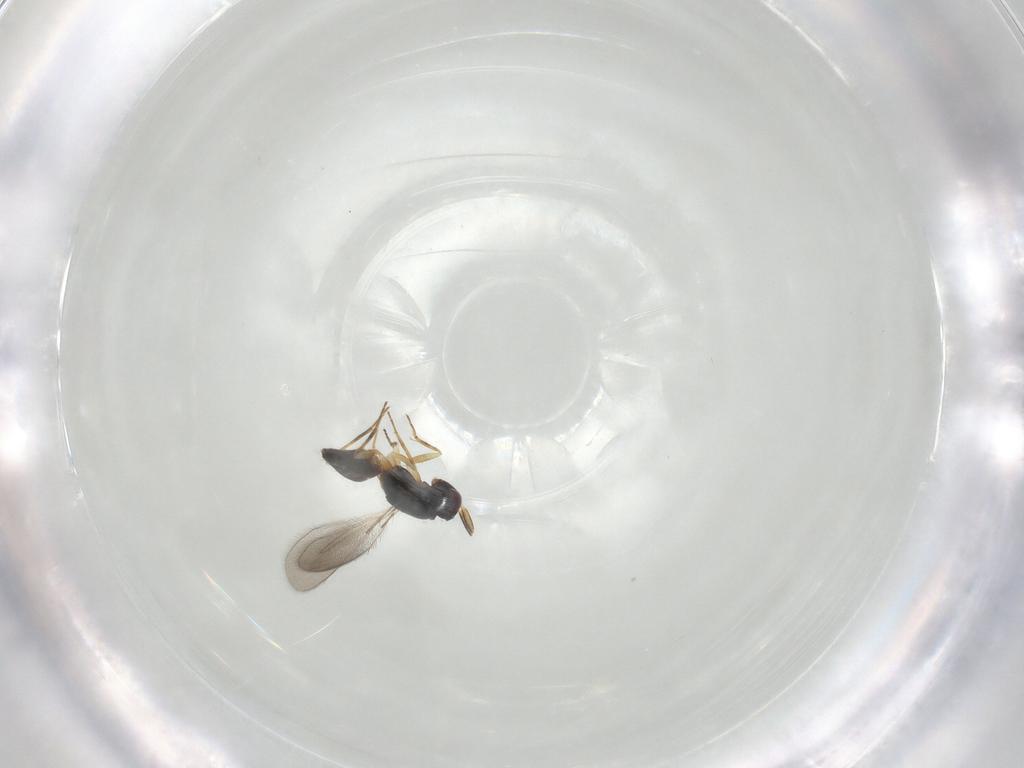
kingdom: Animalia
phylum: Arthropoda
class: Insecta
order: Hymenoptera
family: Mymaridae
